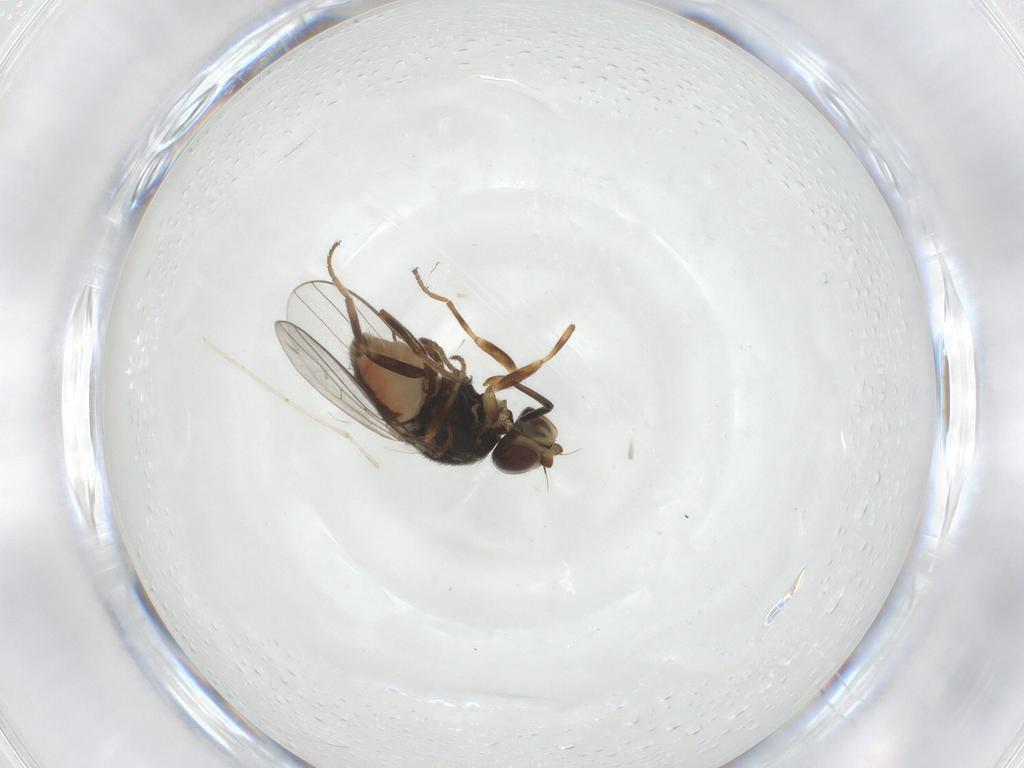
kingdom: Animalia
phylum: Arthropoda
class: Insecta
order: Diptera
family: Chloropidae
